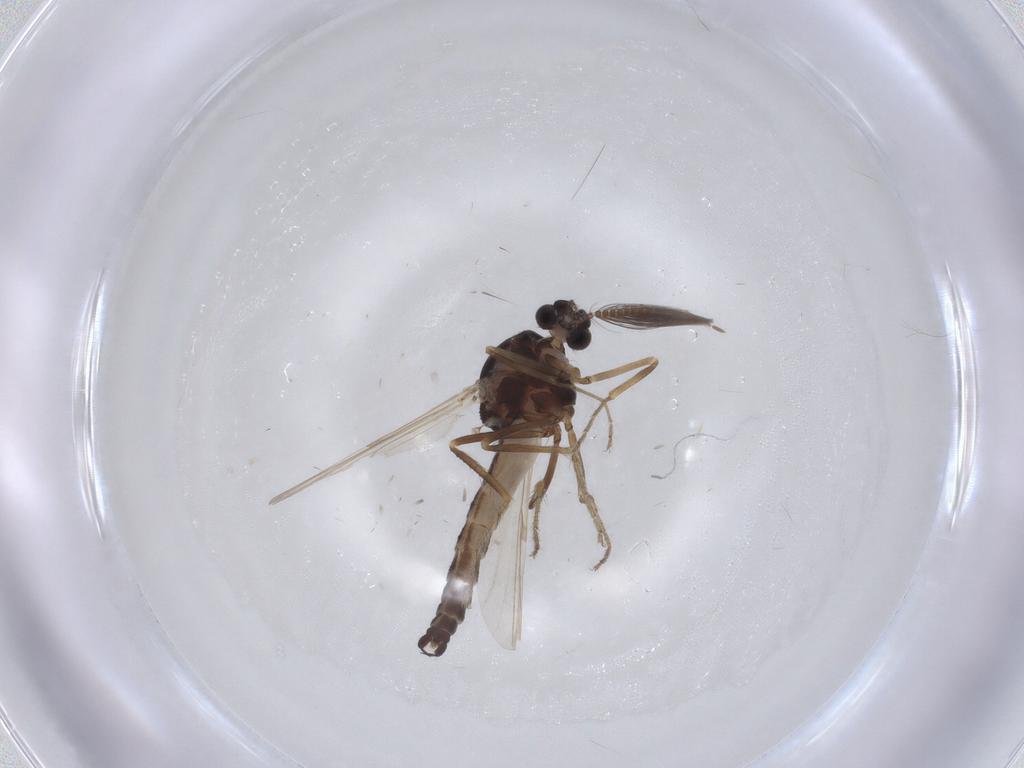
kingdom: Animalia
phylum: Arthropoda
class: Insecta
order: Diptera
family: Ceratopogonidae
